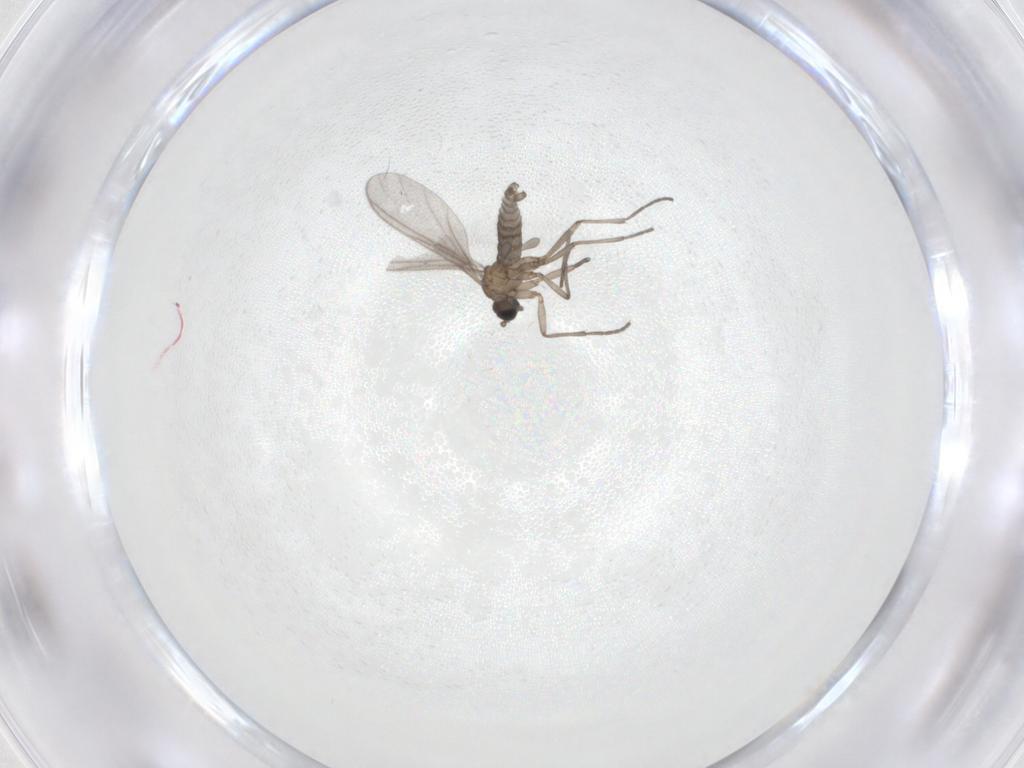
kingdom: Animalia
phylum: Arthropoda
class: Insecta
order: Diptera
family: Sciaridae
